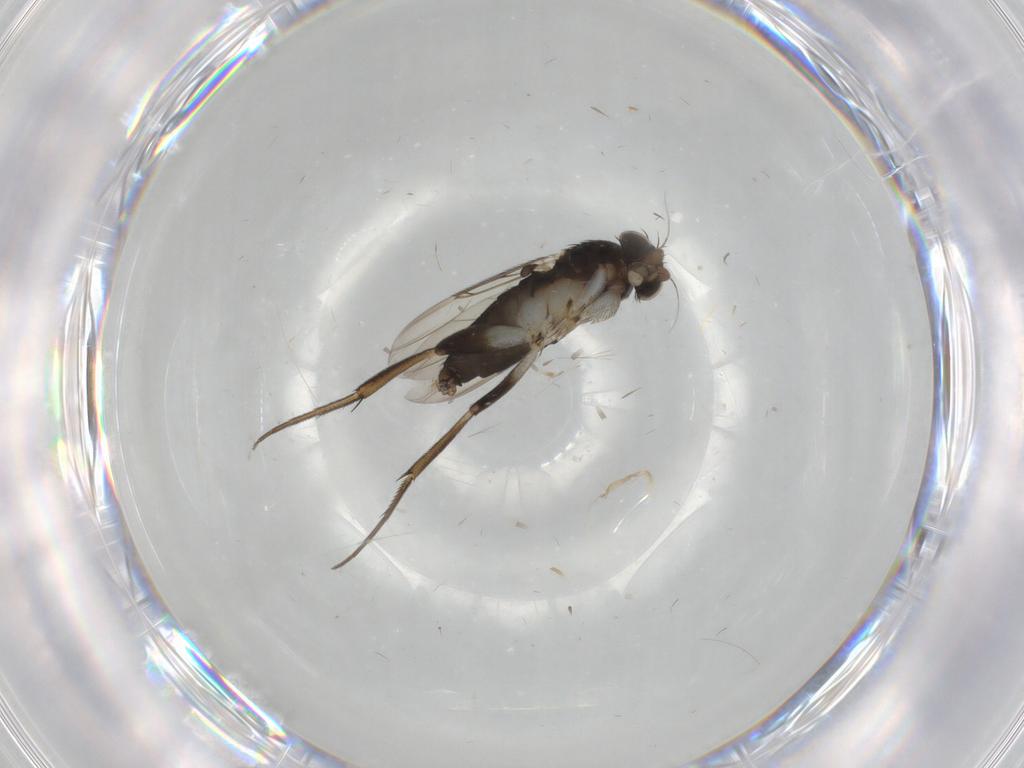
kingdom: Animalia
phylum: Arthropoda
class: Insecta
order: Diptera
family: Phoridae
